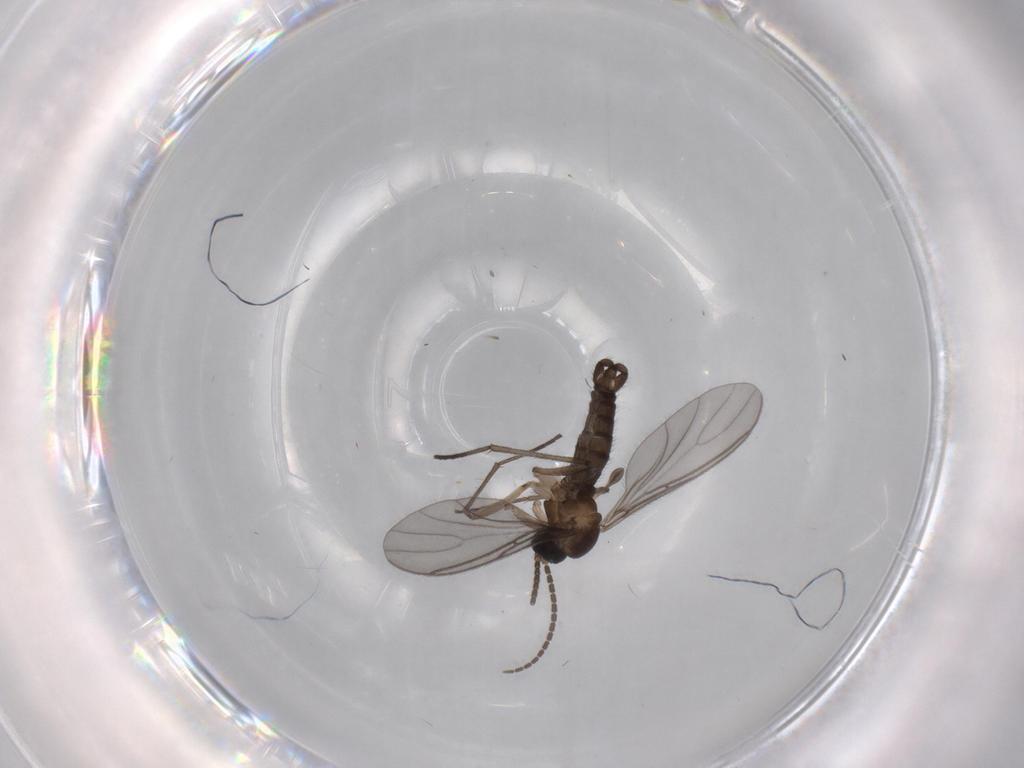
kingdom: Animalia
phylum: Arthropoda
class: Insecta
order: Diptera
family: Sciaridae
